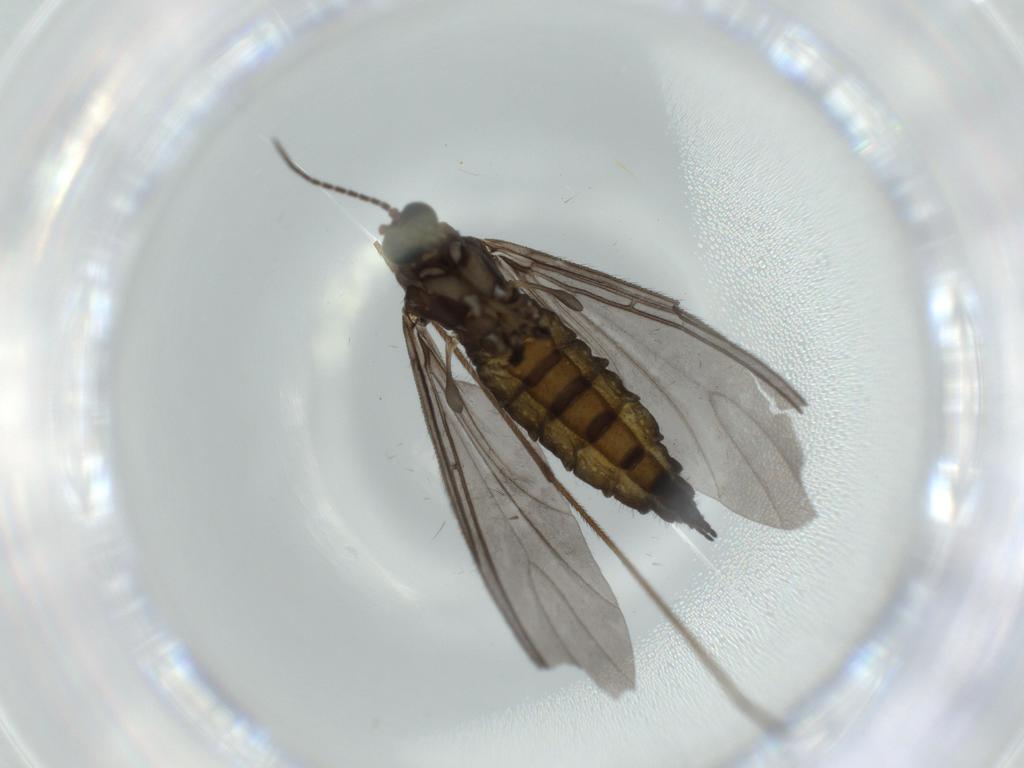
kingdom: Animalia
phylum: Arthropoda
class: Insecta
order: Diptera
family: Sciaridae
